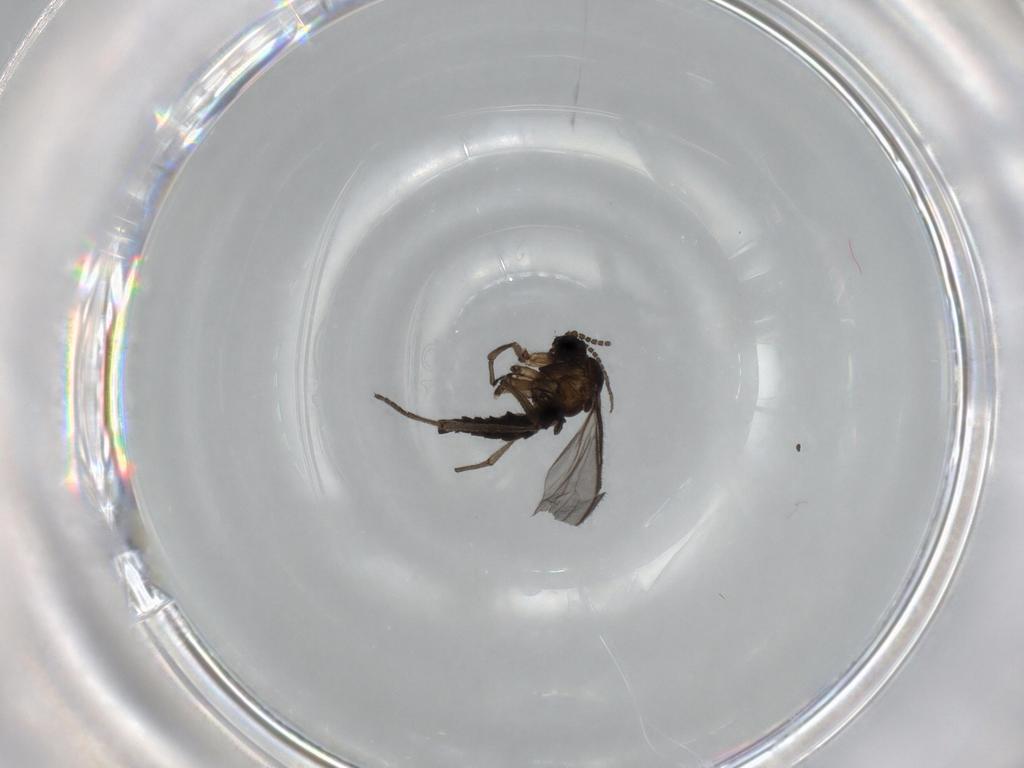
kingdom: Animalia
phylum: Arthropoda
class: Insecta
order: Diptera
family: Sciaridae
